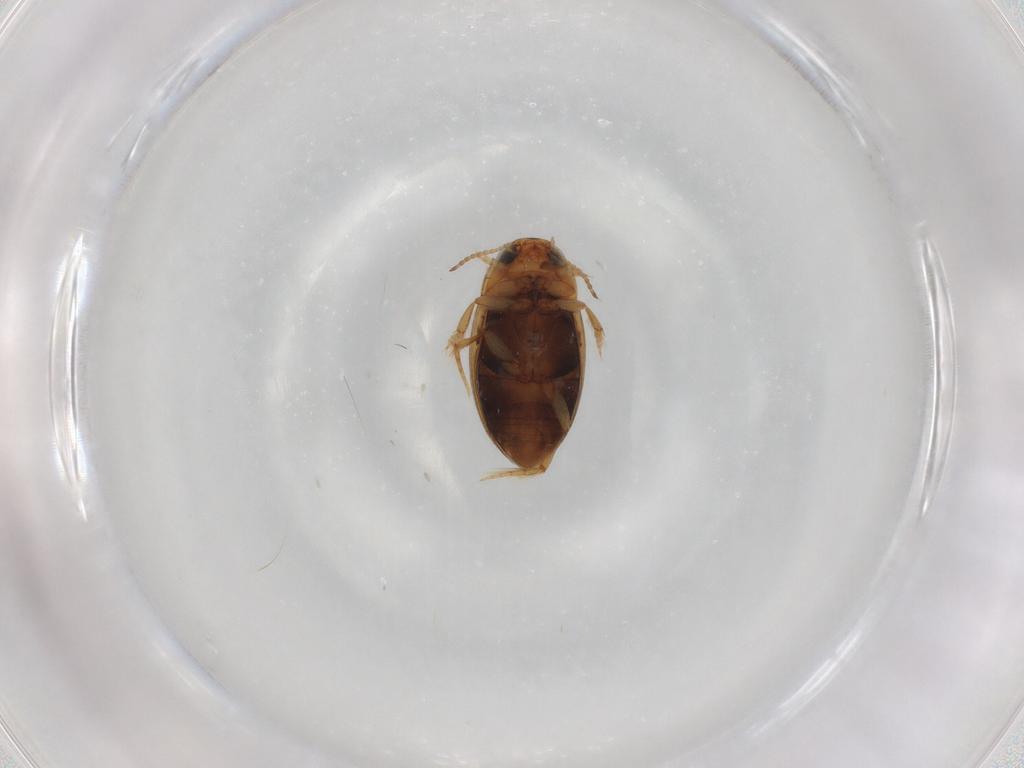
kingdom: Animalia
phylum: Arthropoda
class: Insecta
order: Coleoptera
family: Dytiscidae
